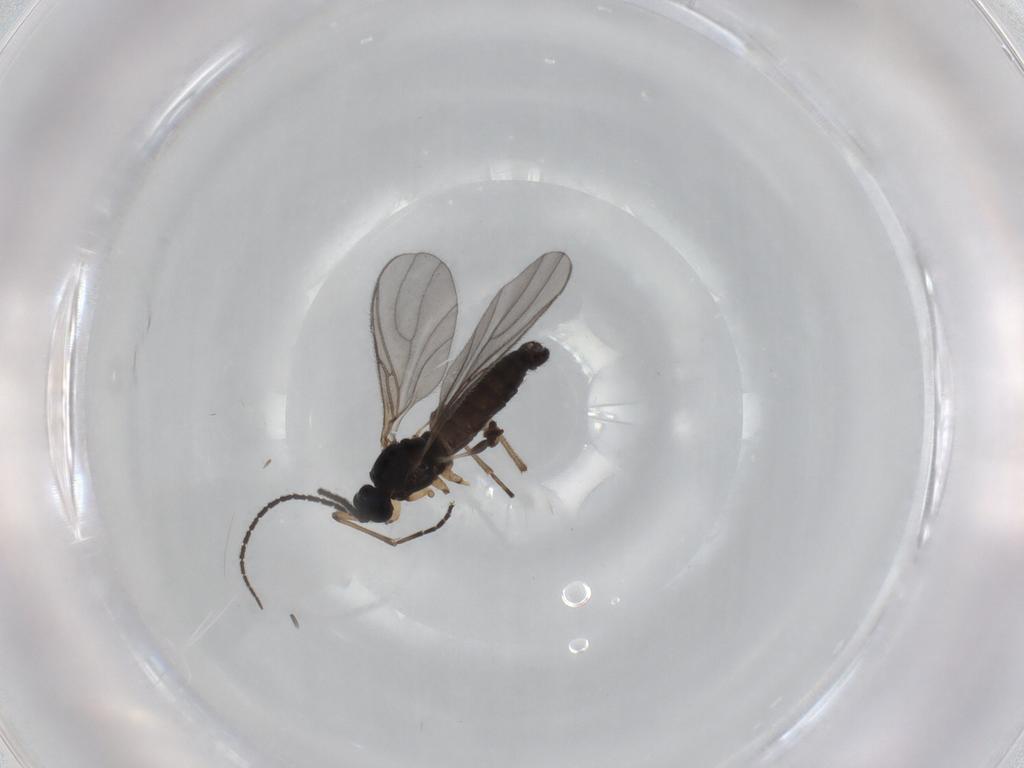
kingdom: Animalia
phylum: Arthropoda
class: Insecta
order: Diptera
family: Sciaridae
